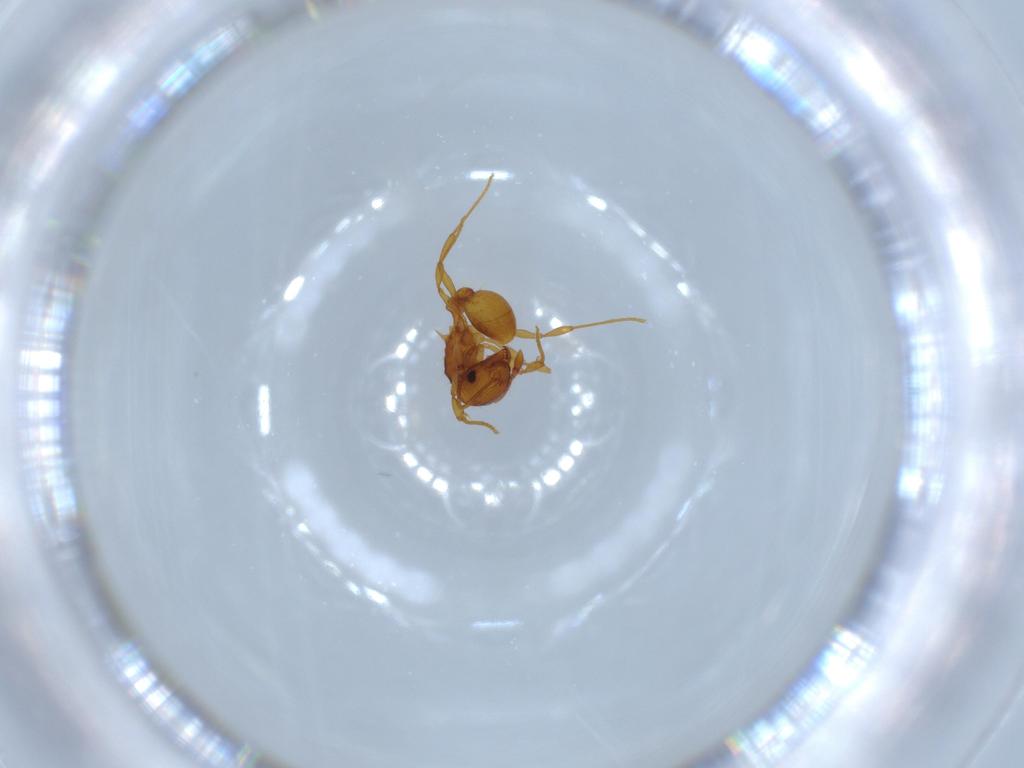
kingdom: Animalia
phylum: Arthropoda
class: Insecta
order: Hymenoptera
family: Formicidae
